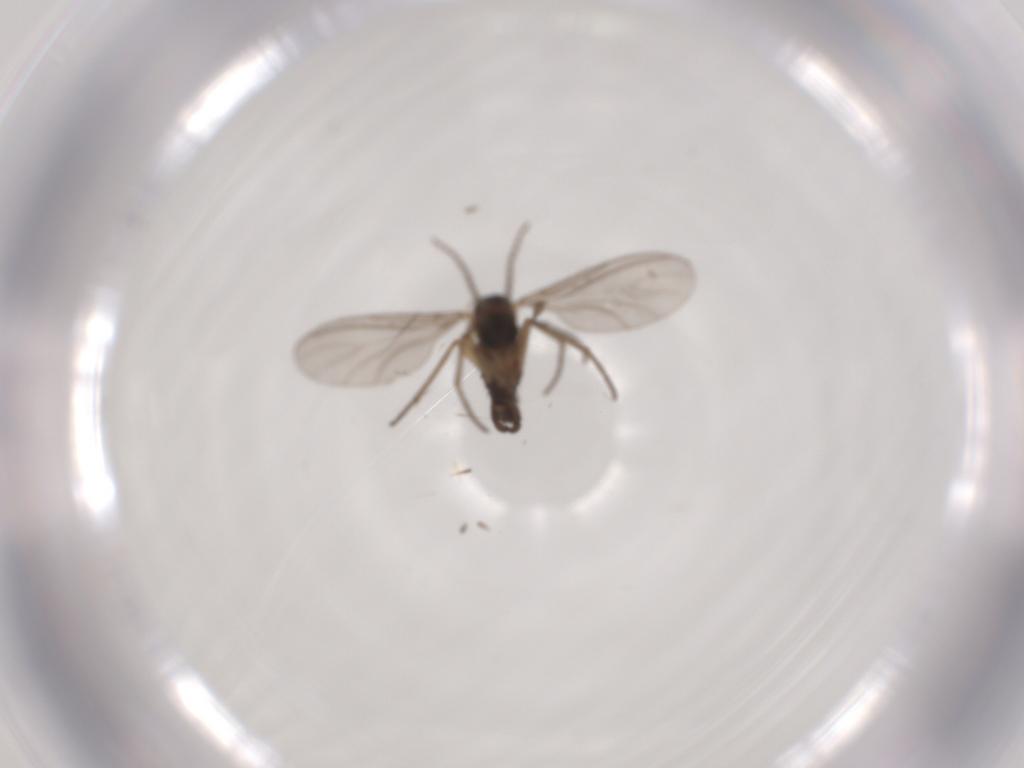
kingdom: Animalia
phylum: Arthropoda
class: Insecta
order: Diptera
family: Sciaridae
